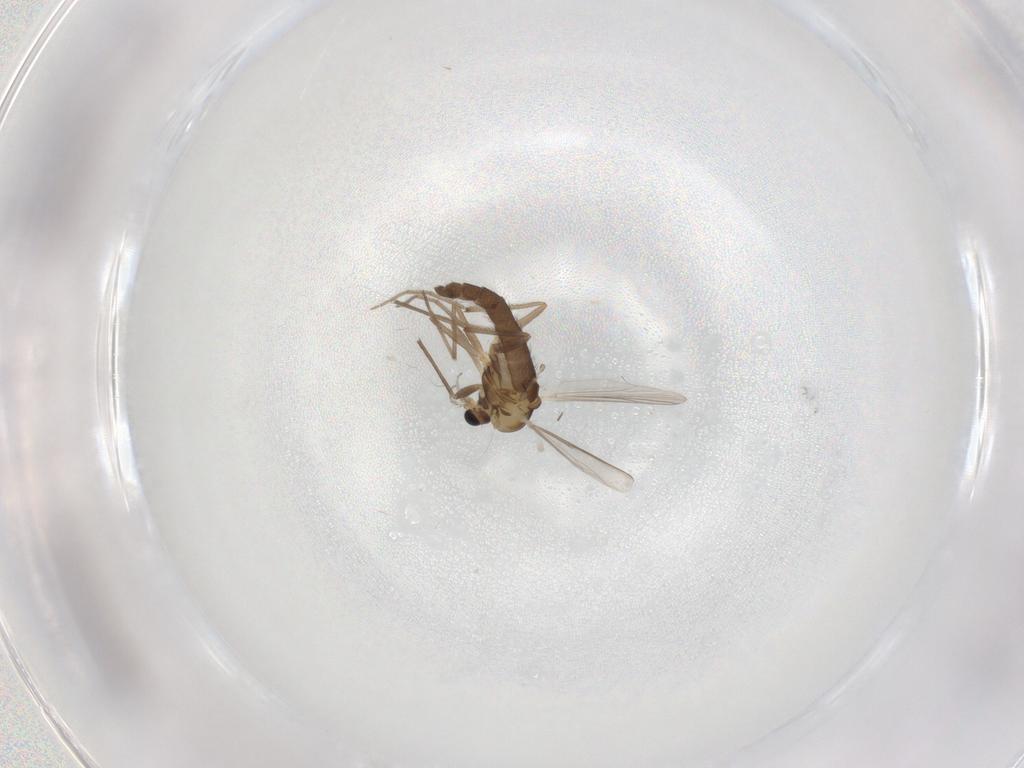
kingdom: Animalia
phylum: Arthropoda
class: Insecta
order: Diptera
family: Chironomidae
